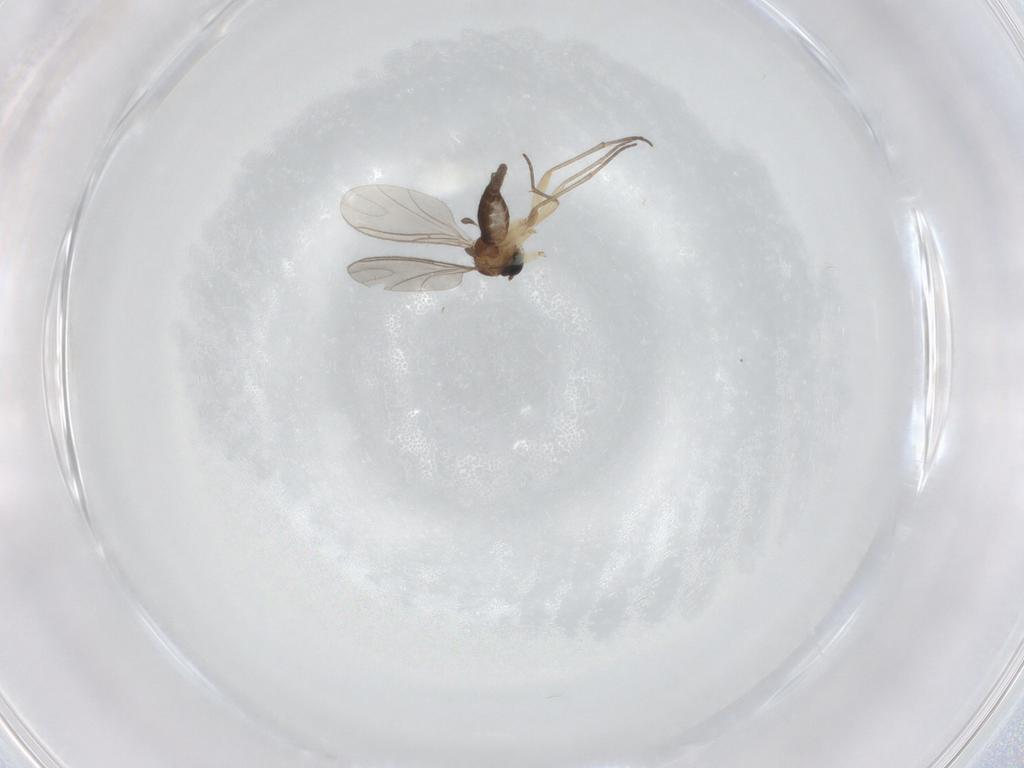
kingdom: Animalia
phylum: Arthropoda
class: Insecta
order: Diptera
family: Sciaridae
